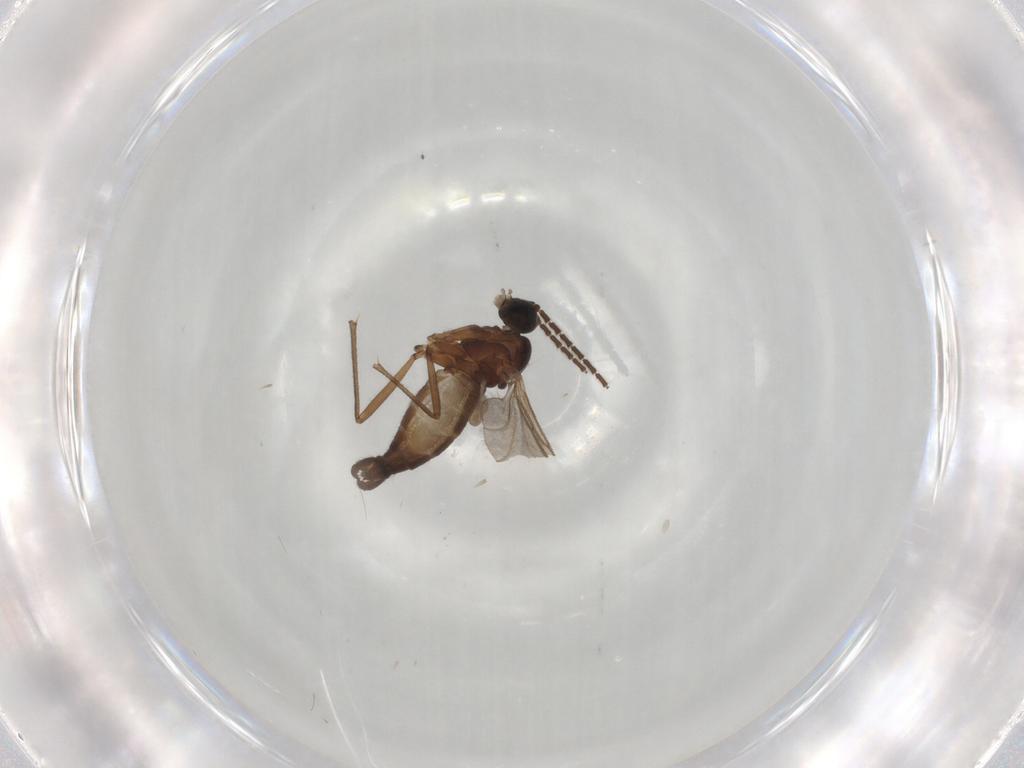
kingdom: Animalia
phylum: Arthropoda
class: Insecta
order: Diptera
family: Sciaridae
